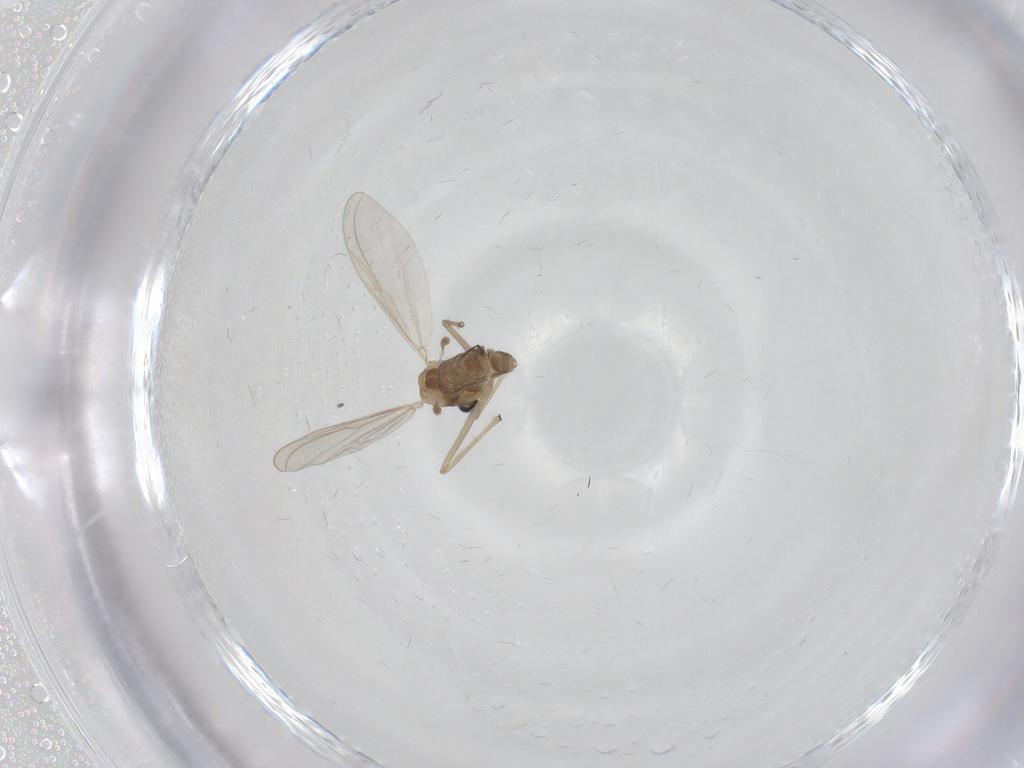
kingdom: Animalia
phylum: Arthropoda
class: Insecta
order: Diptera
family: Chironomidae
